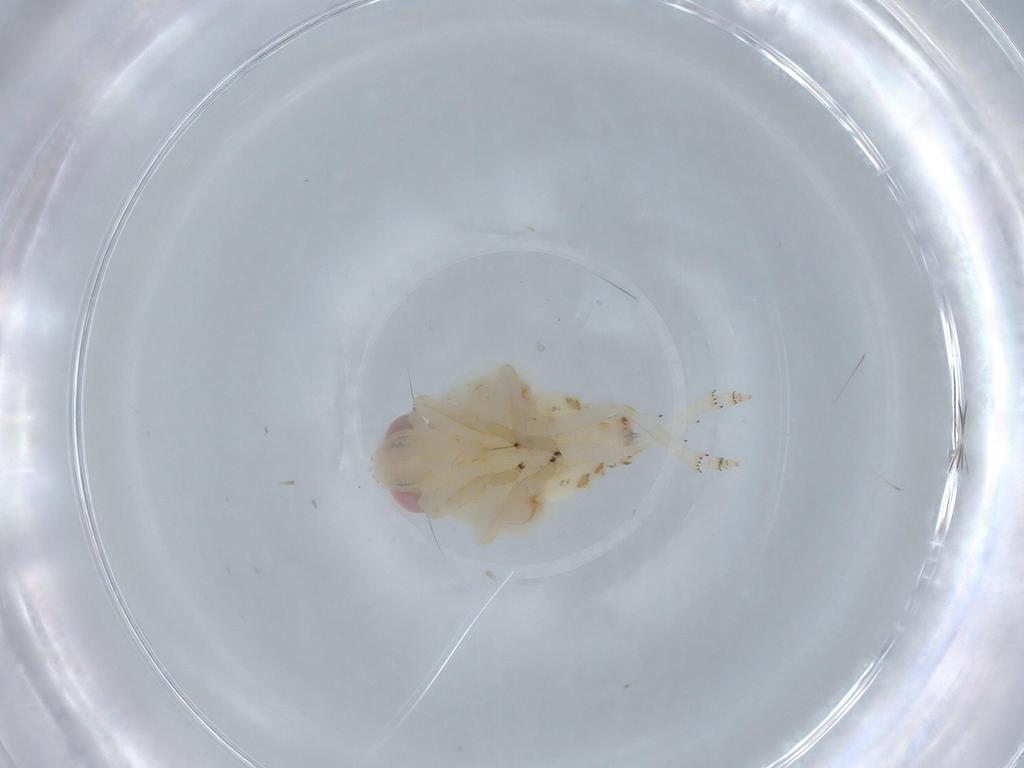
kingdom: Animalia
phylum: Arthropoda
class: Insecta
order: Hemiptera
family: Nogodinidae
